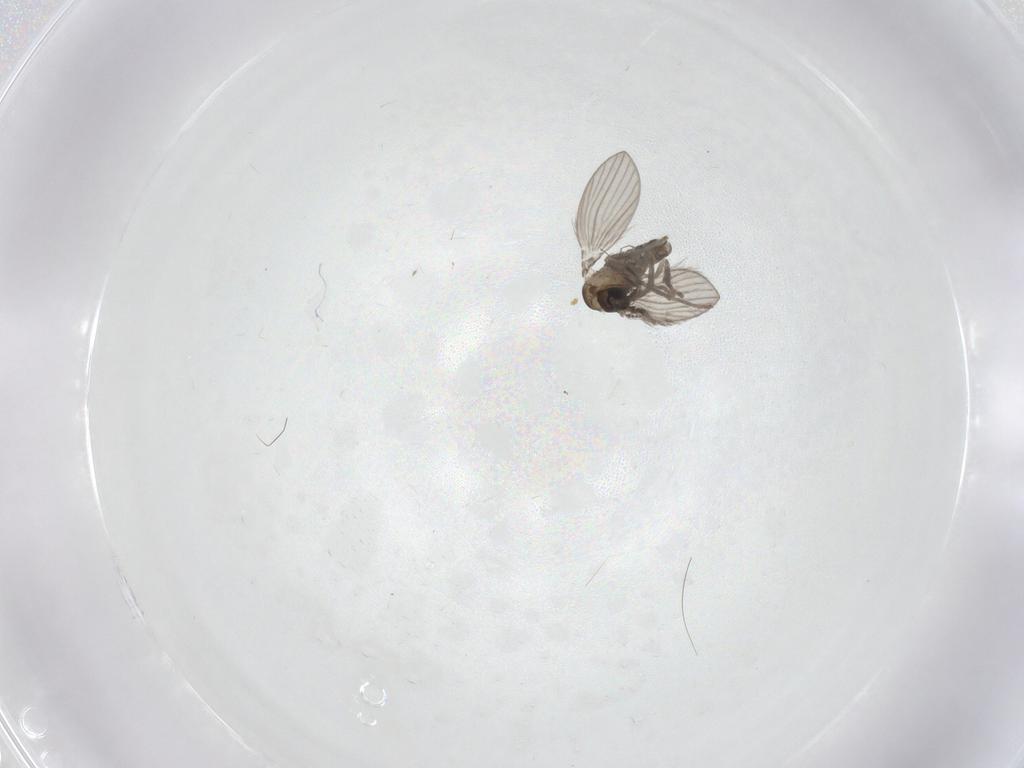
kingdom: Animalia
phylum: Arthropoda
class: Insecta
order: Diptera
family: Psychodidae
